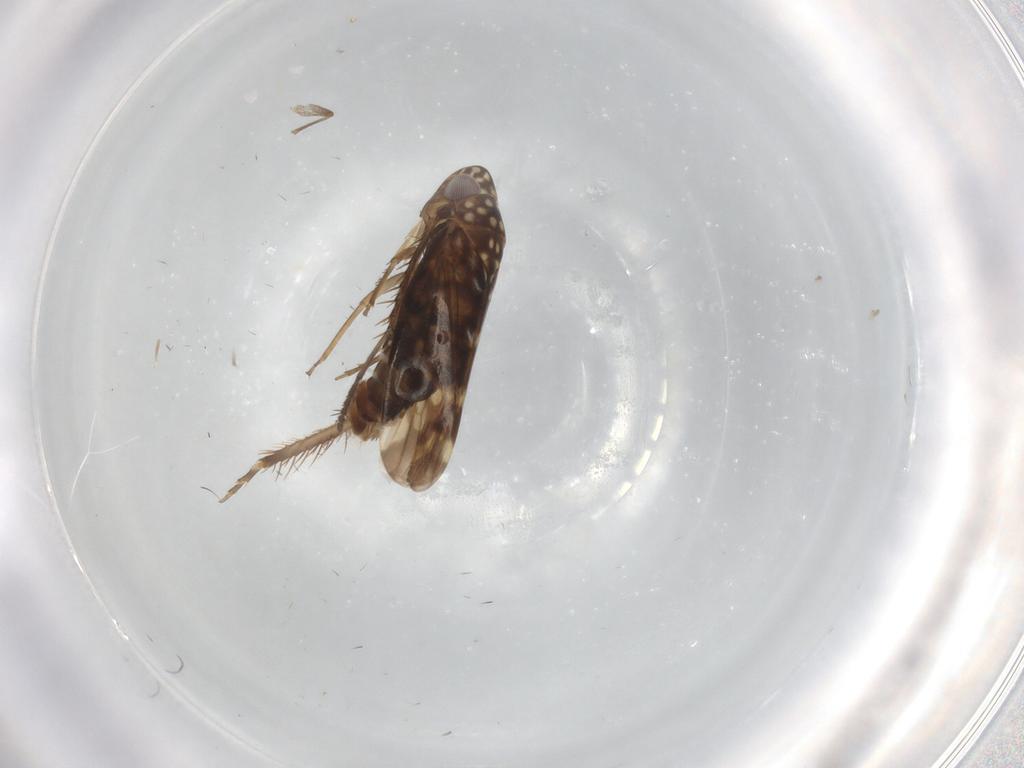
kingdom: Animalia
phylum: Arthropoda
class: Insecta
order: Hemiptera
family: Cicadellidae
